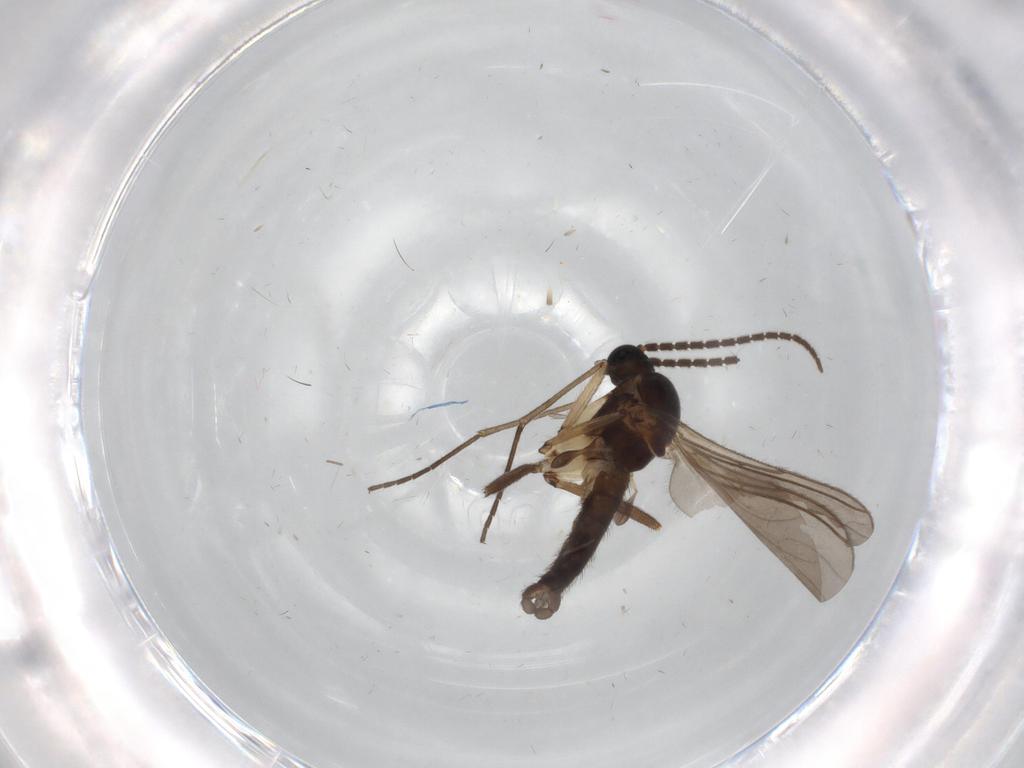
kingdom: Animalia
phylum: Arthropoda
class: Insecta
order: Diptera
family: Sciaridae
